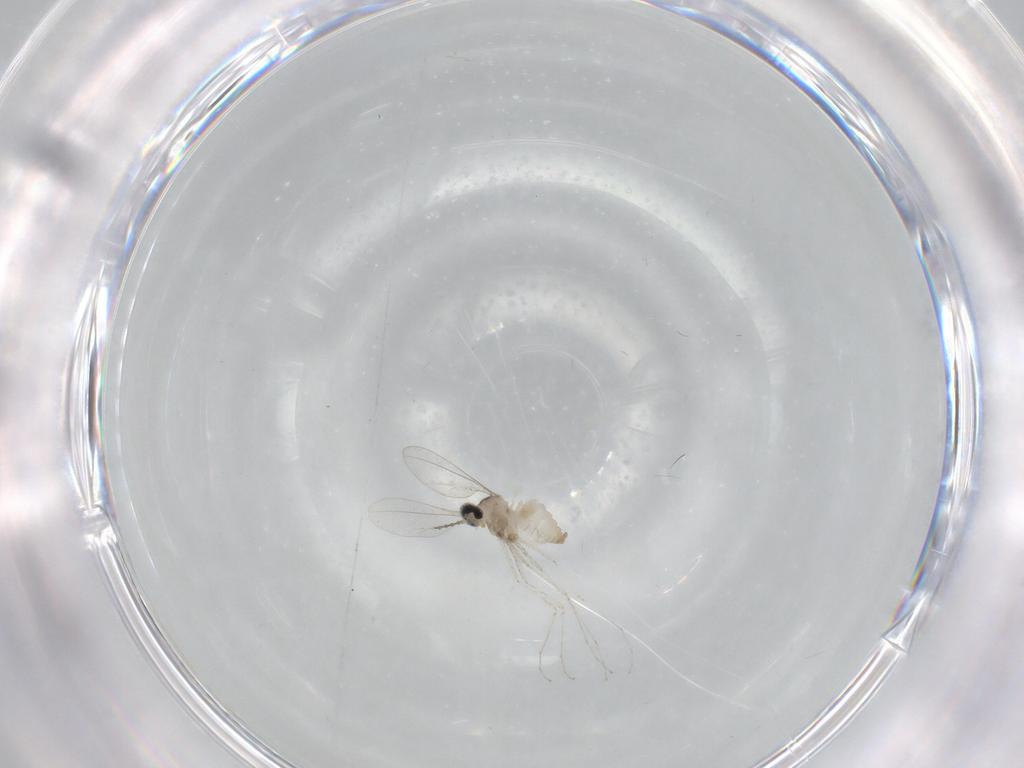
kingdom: Animalia
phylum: Arthropoda
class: Insecta
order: Diptera
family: Cecidomyiidae
